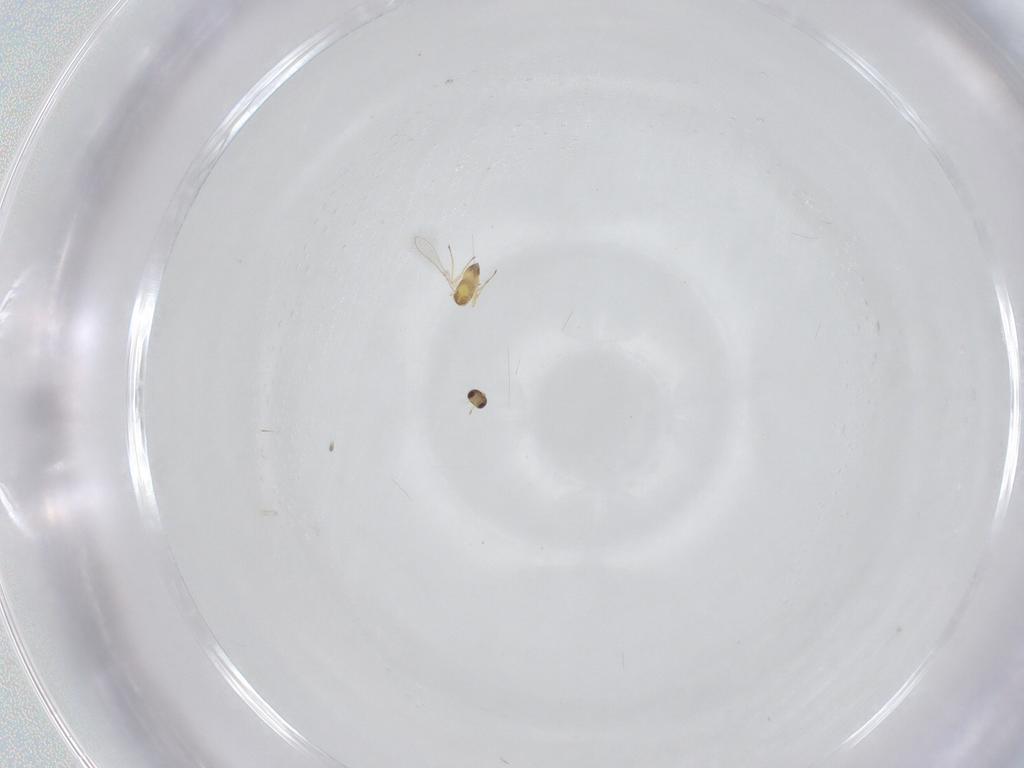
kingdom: Animalia
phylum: Arthropoda
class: Insecta
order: Hymenoptera
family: Mymaridae
